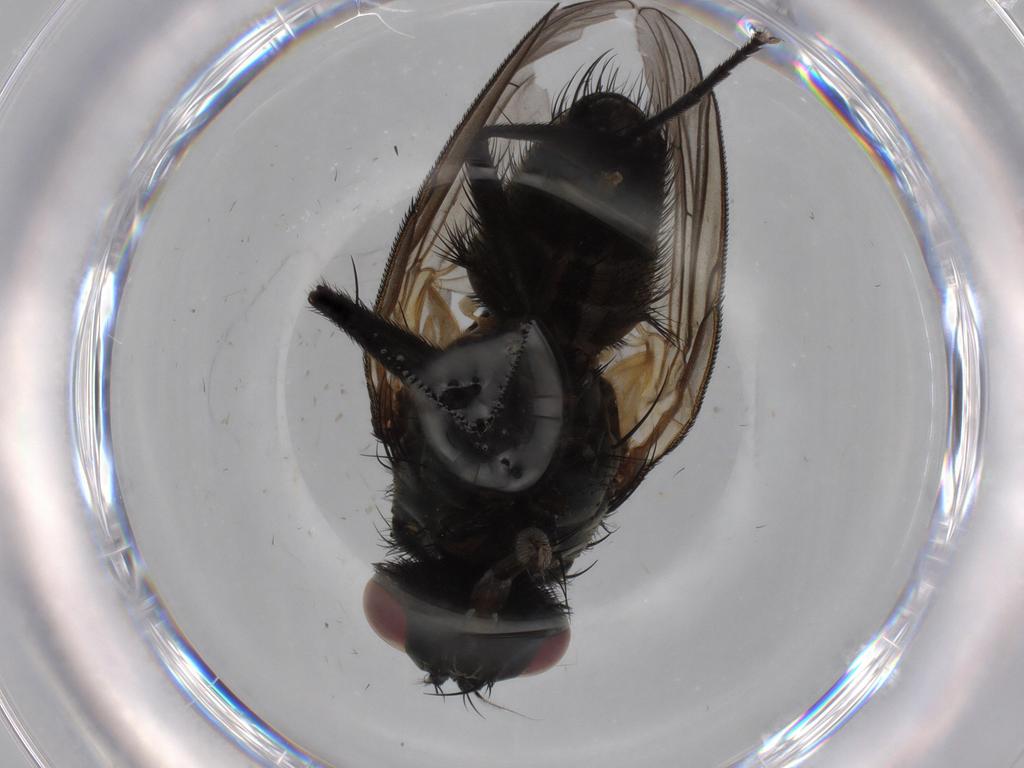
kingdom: Animalia
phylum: Arthropoda
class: Insecta
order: Diptera
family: Muscidae
